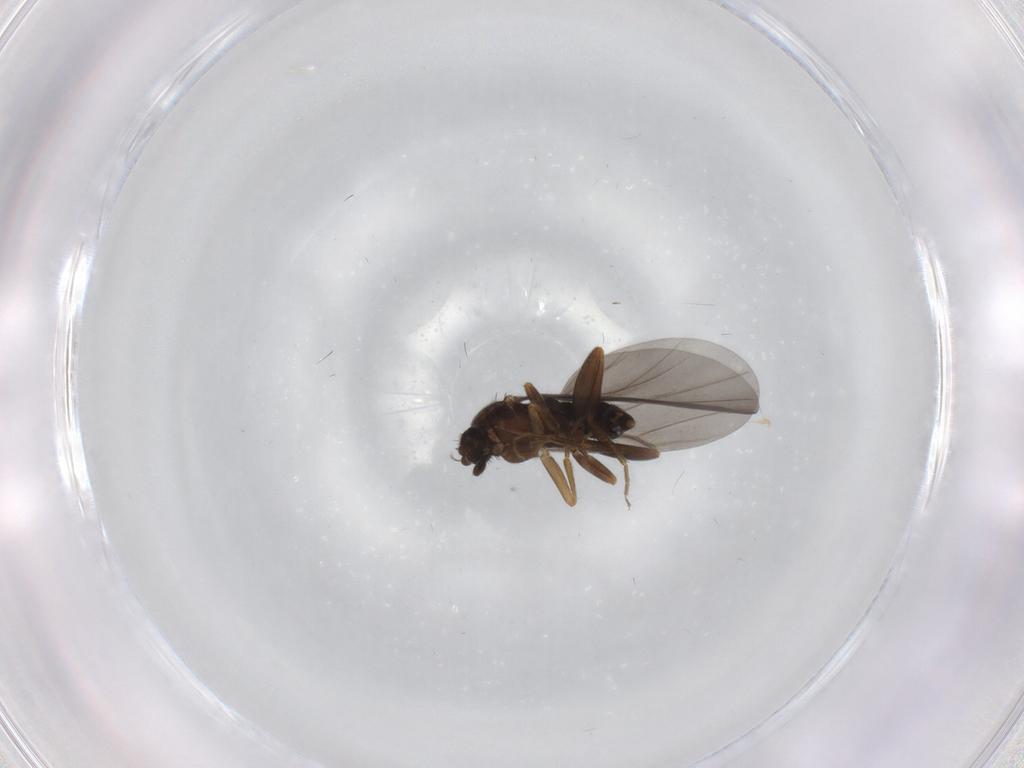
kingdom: Animalia
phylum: Arthropoda
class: Insecta
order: Diptera
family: Phoridae
